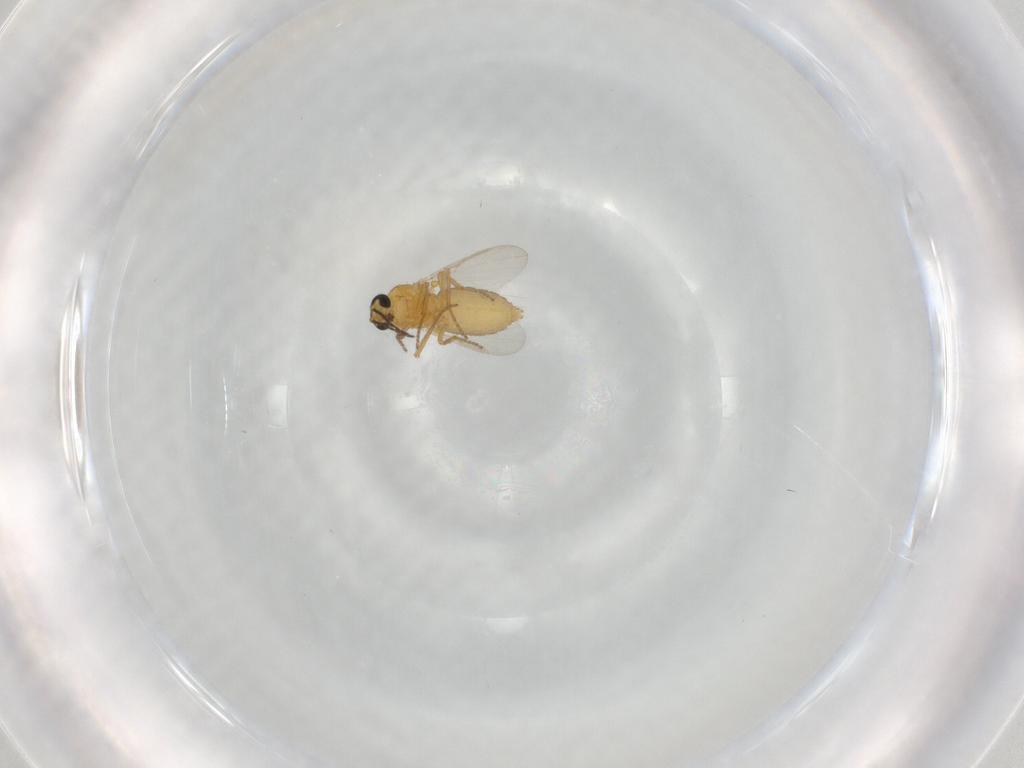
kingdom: Animalia
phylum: Arthropoda
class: Insecta
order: Diptera
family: Ceratopogonidae
